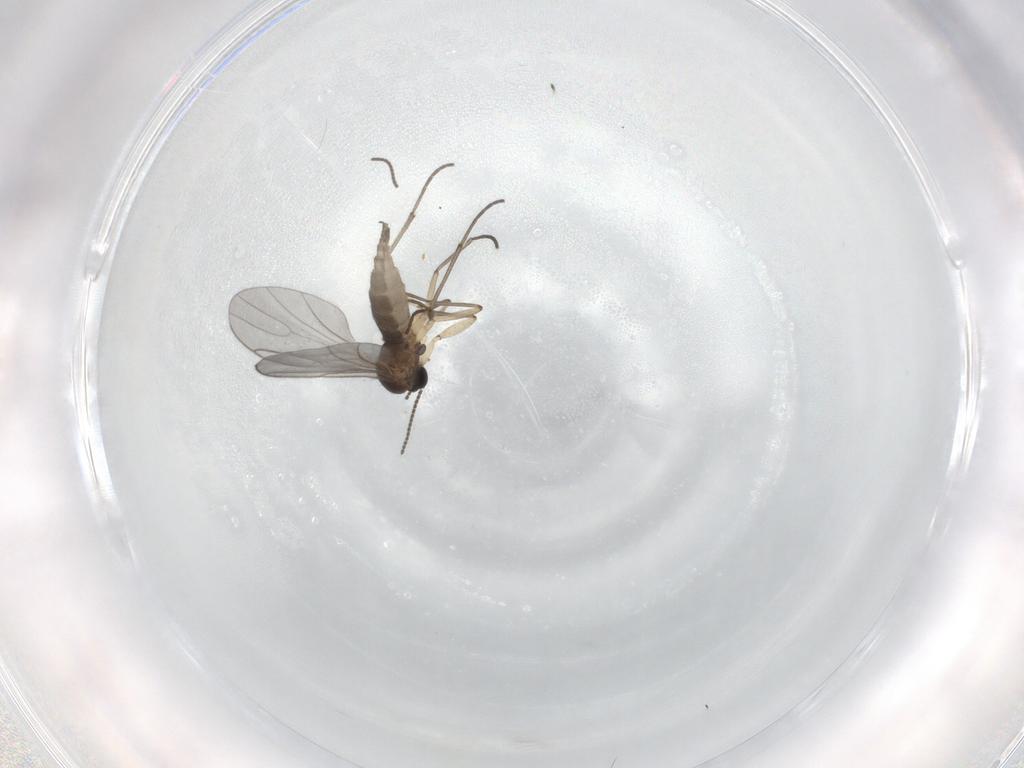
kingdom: Animalia
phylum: Arthropoda
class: Insecta
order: Diptera
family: Sciaridae
